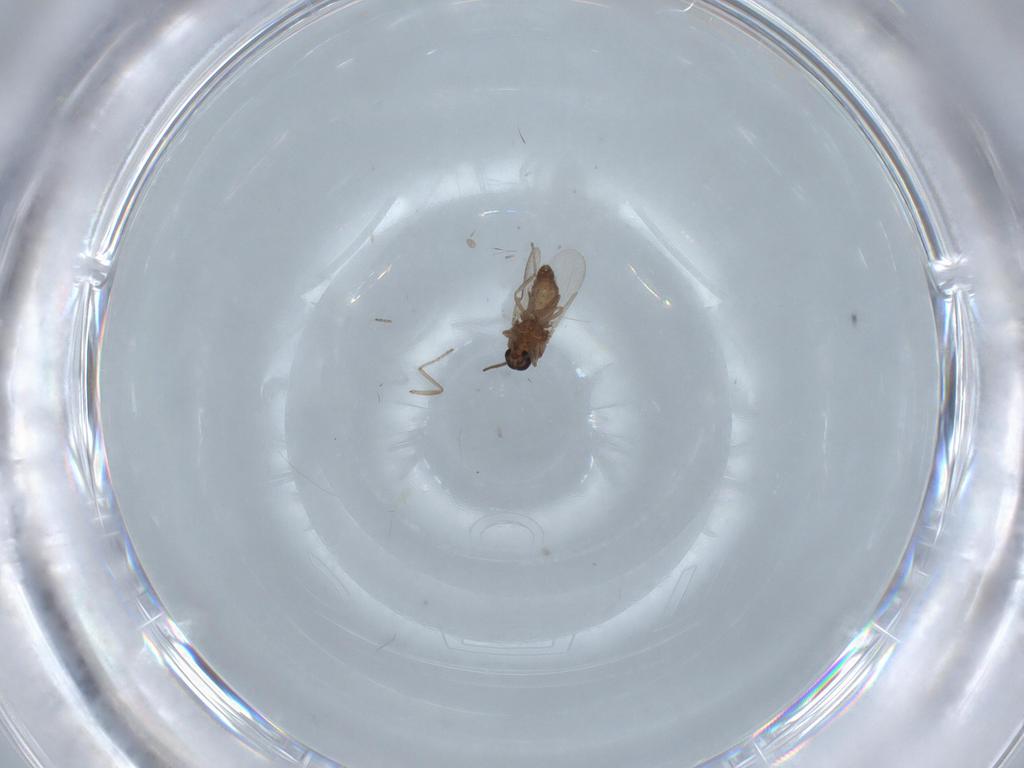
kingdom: Animalia
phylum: Arthropoda
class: Insecta
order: Diptera
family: Ceratopogonidae
